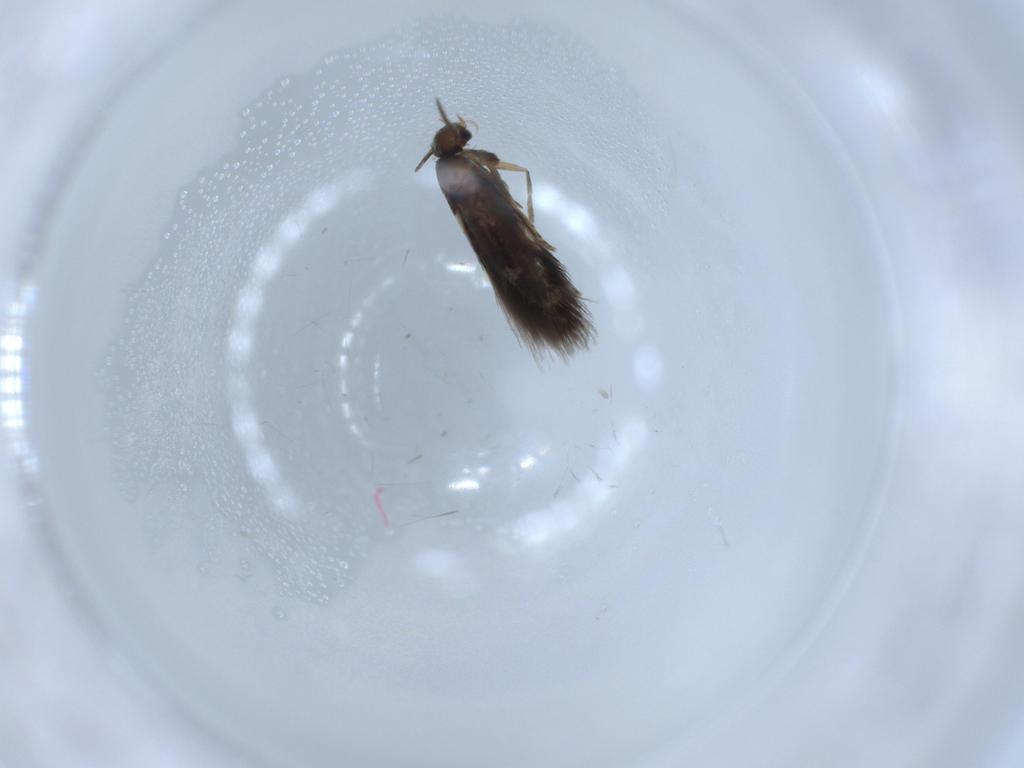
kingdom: Animalia
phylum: Arthropoda
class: Insecta
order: Lepidoptera
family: Heliozelidae
